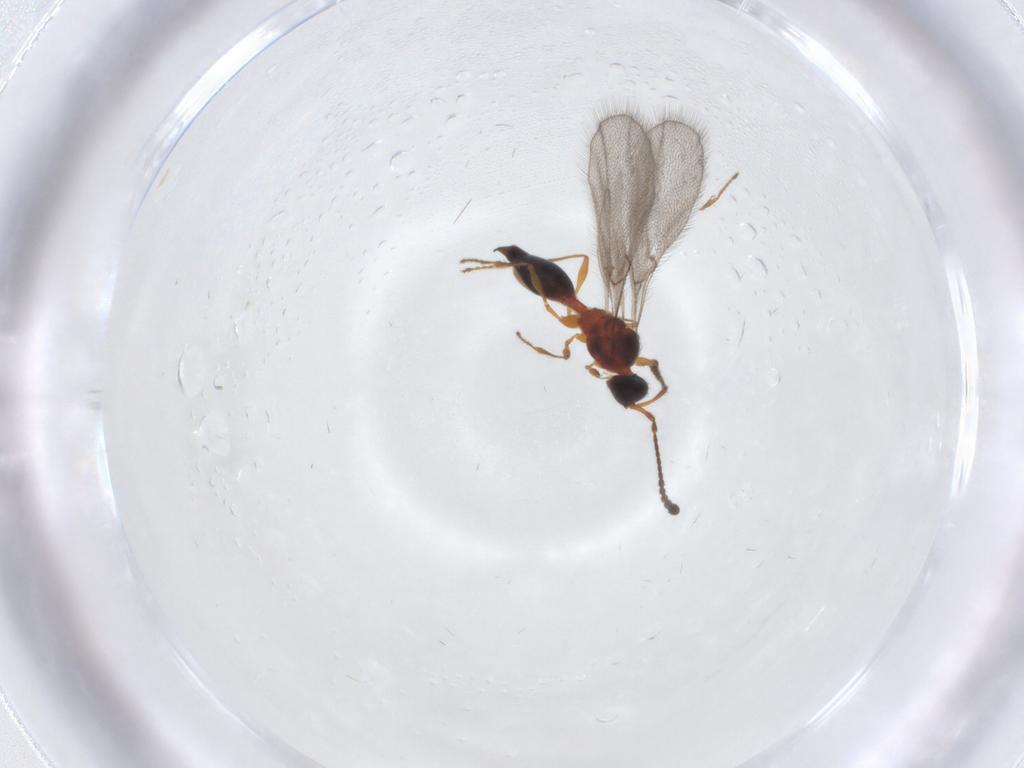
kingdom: Animalia
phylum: Arthropoda
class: Insecta
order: Hymenoptera
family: Diapriidae
